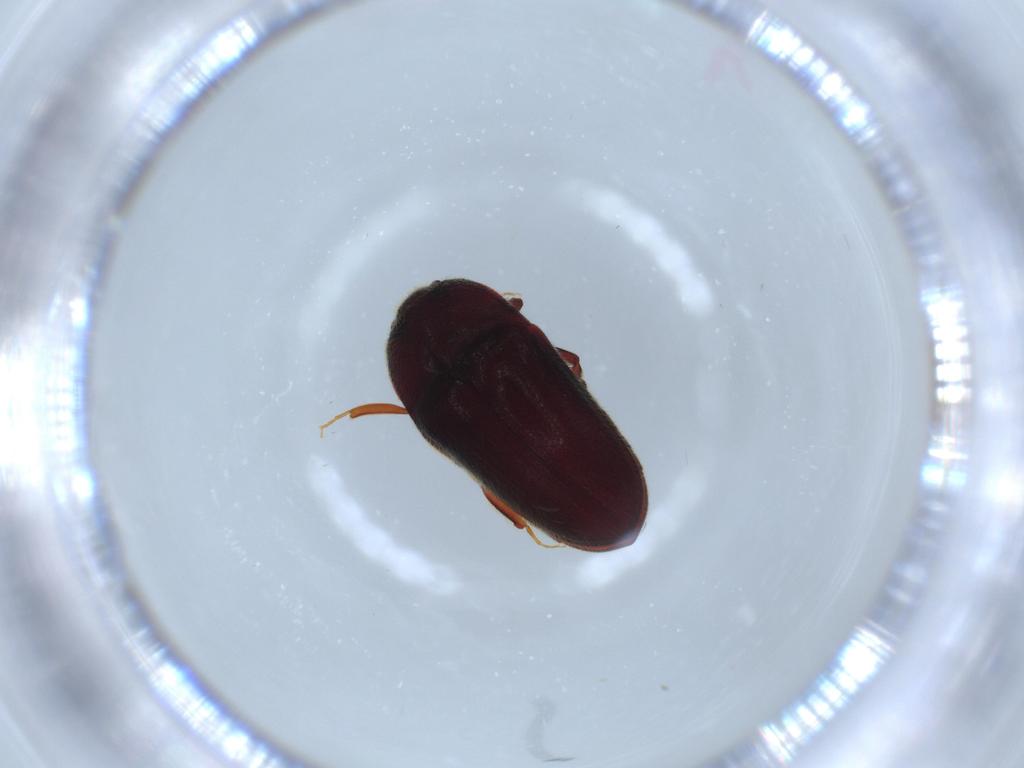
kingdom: Animalia
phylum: Arthropoda
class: Insecta
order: Coleoptera
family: Throscidae
